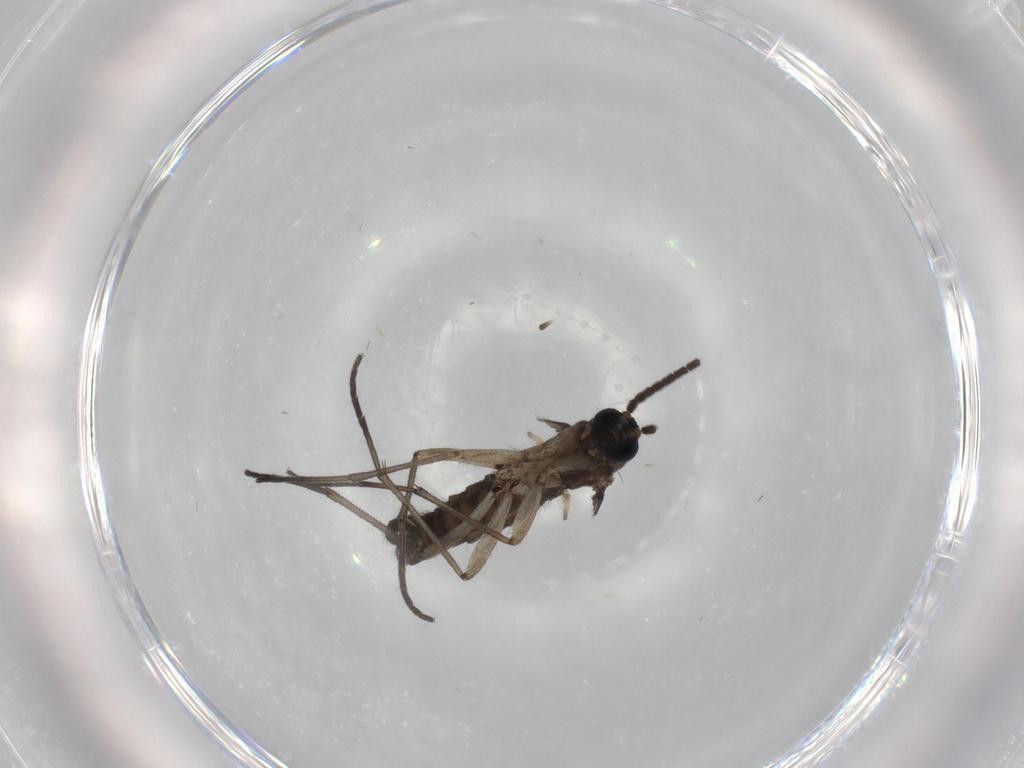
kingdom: Animalia
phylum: Arthropoda
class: Insecta
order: Diptera
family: Sciaridae
